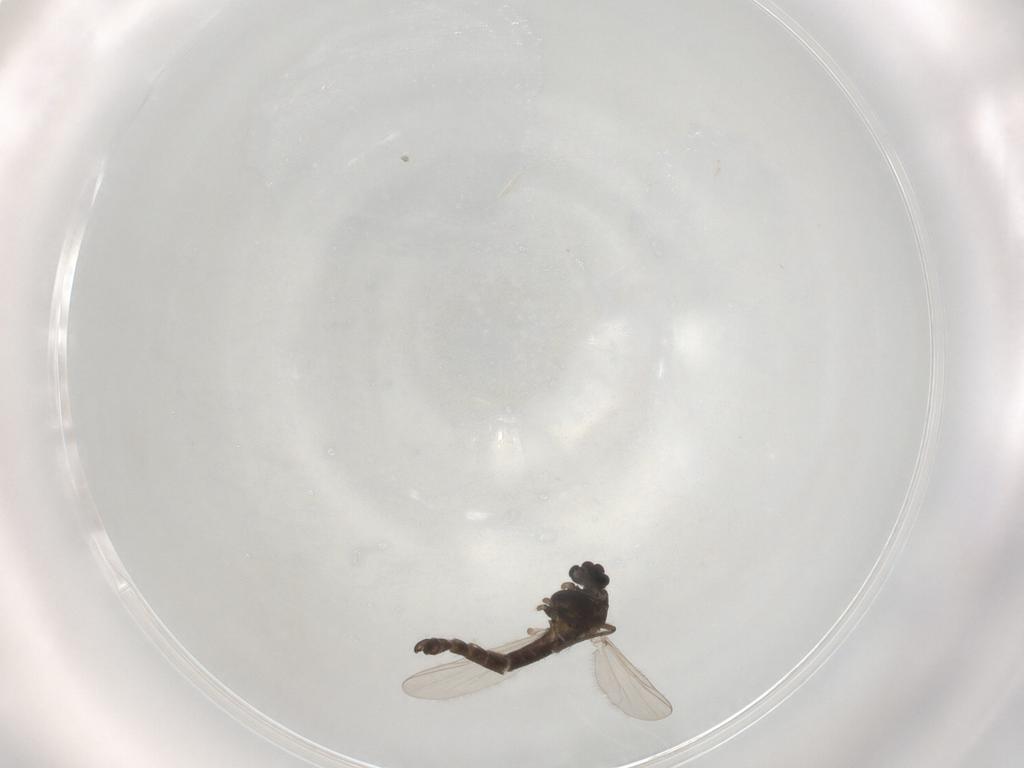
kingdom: Animalia
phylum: Arthropoda
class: Insecta
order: Diptera
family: Chironomidae
